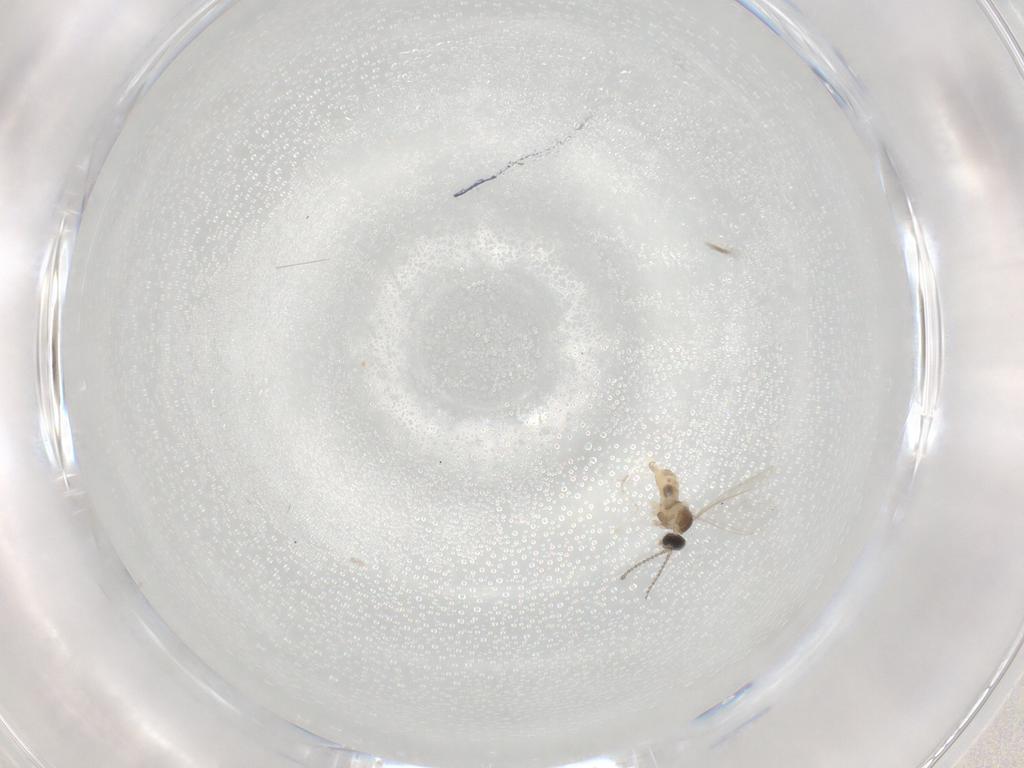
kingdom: Animalia
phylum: Arthropoda
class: Insecta
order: Diptera
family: Cecidomyiidae
